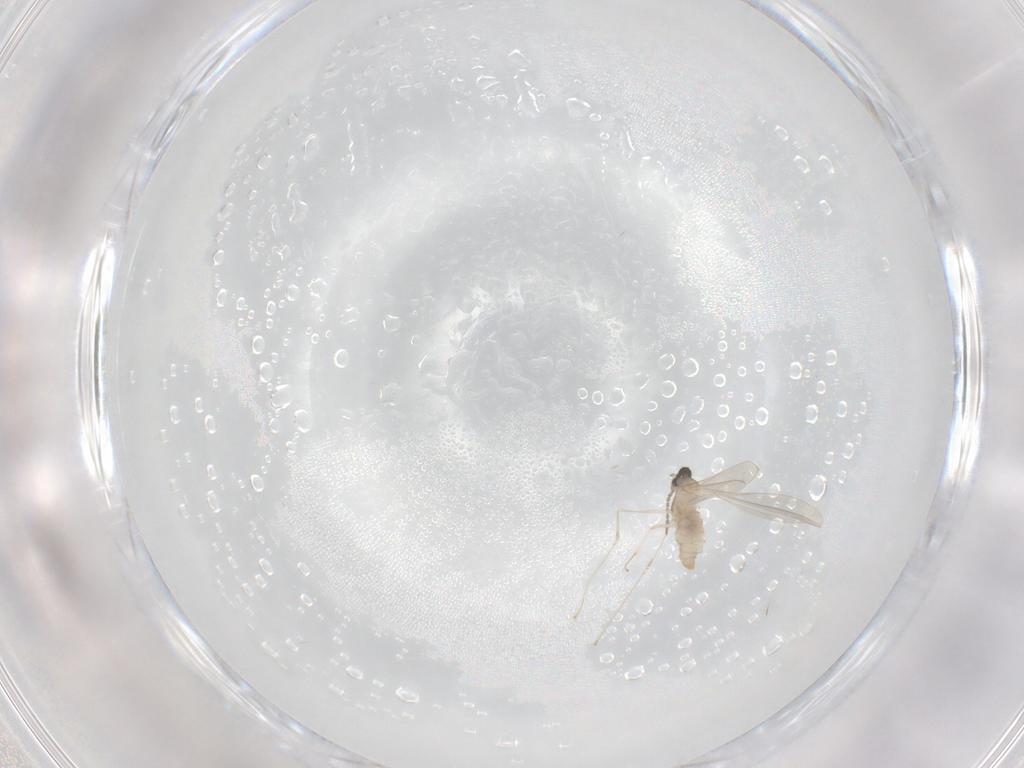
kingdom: Animalia
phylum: Arthropoda
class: Insecta
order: Diptera
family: Cecidomyiidae
